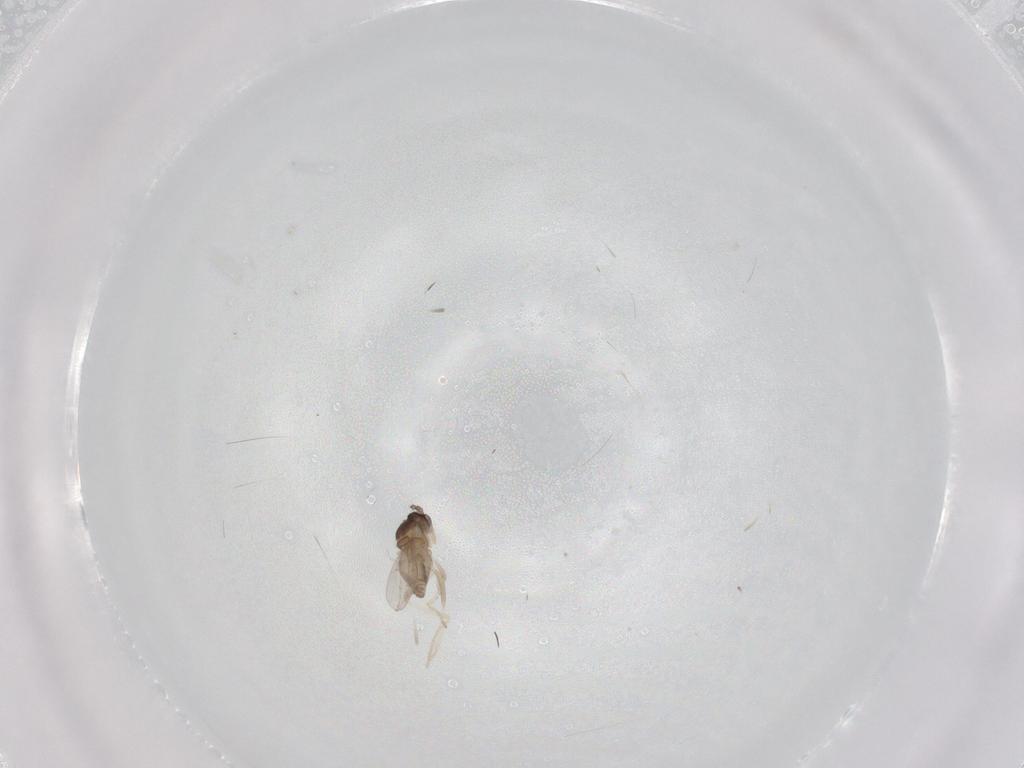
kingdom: Animalia
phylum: Arthropoda
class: Insecta
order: Diptera
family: Cecidomyiidae
